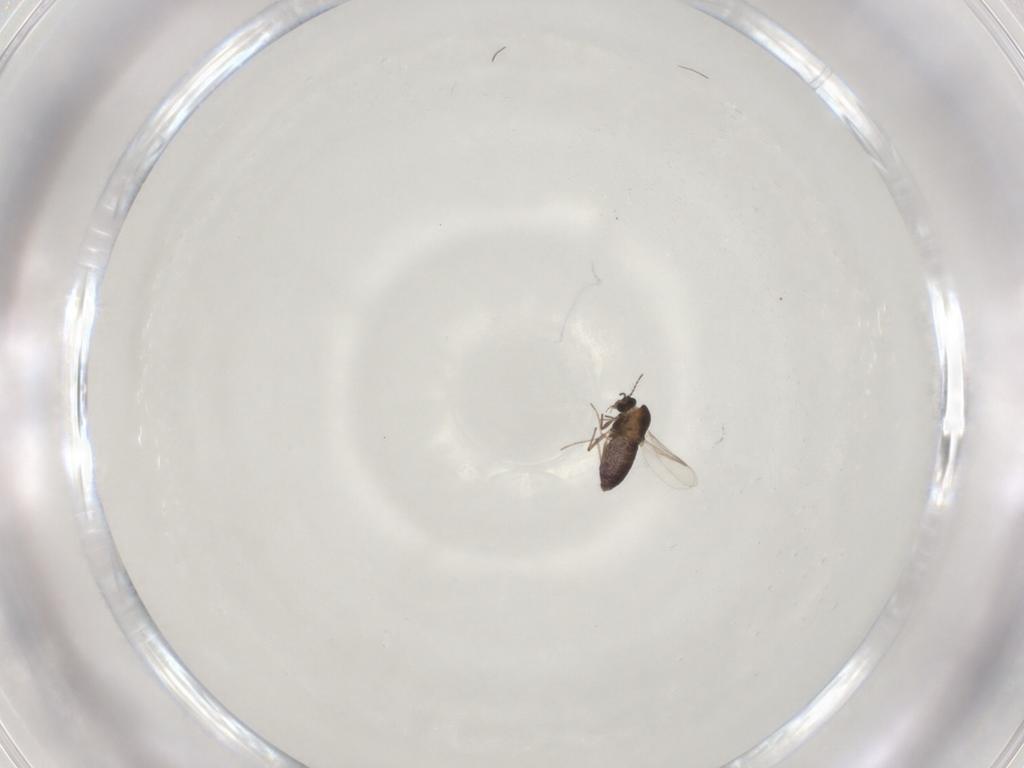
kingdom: Animalia
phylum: Arthropoda
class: Insecta
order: Diptera
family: Chironomidae
